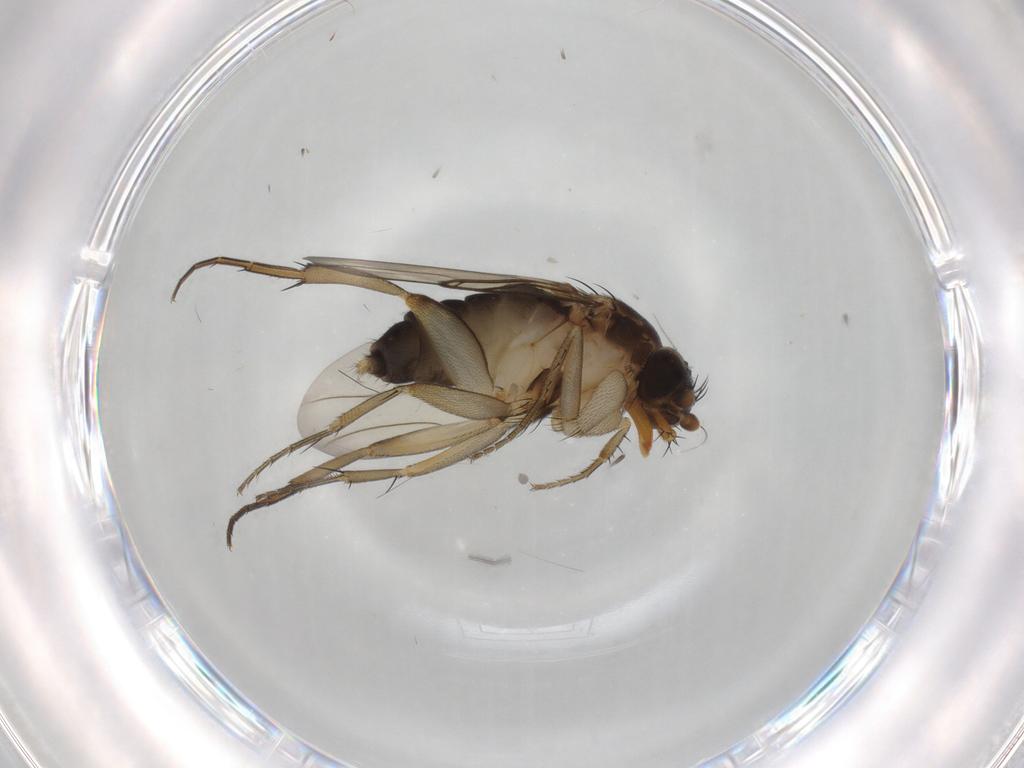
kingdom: Animalia
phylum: Arthropoda
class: Insecta
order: Diptera
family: Phoridae
